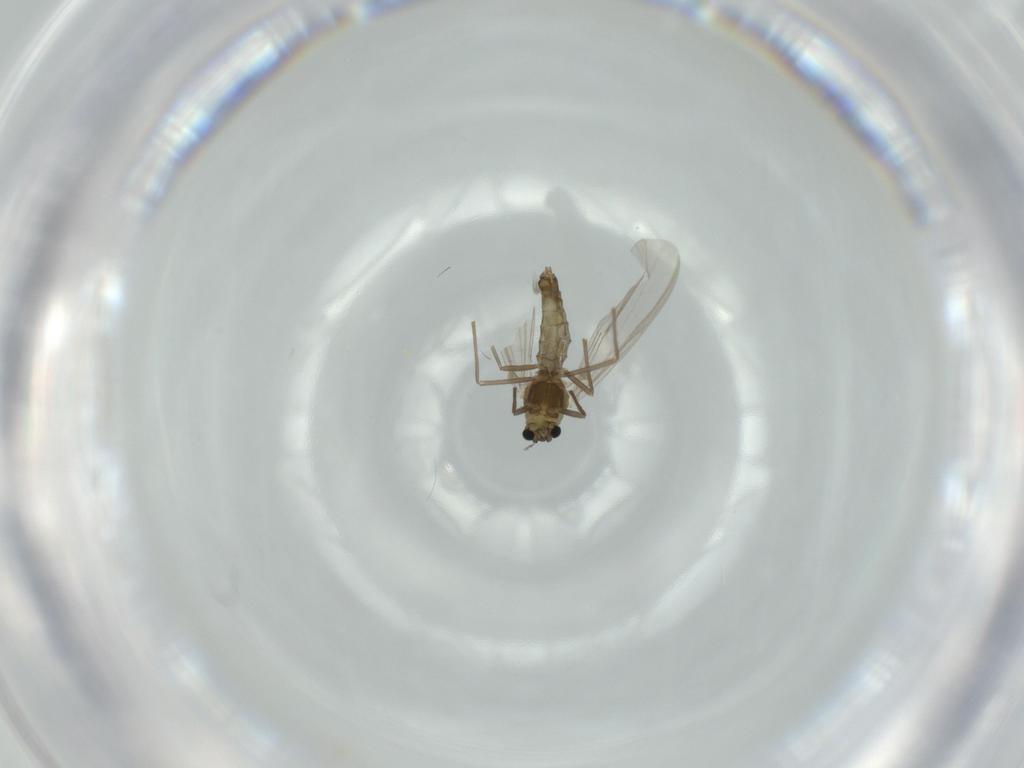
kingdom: Animalia
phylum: Arthropoda
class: Insecta
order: Diptera
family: Chironomidae
